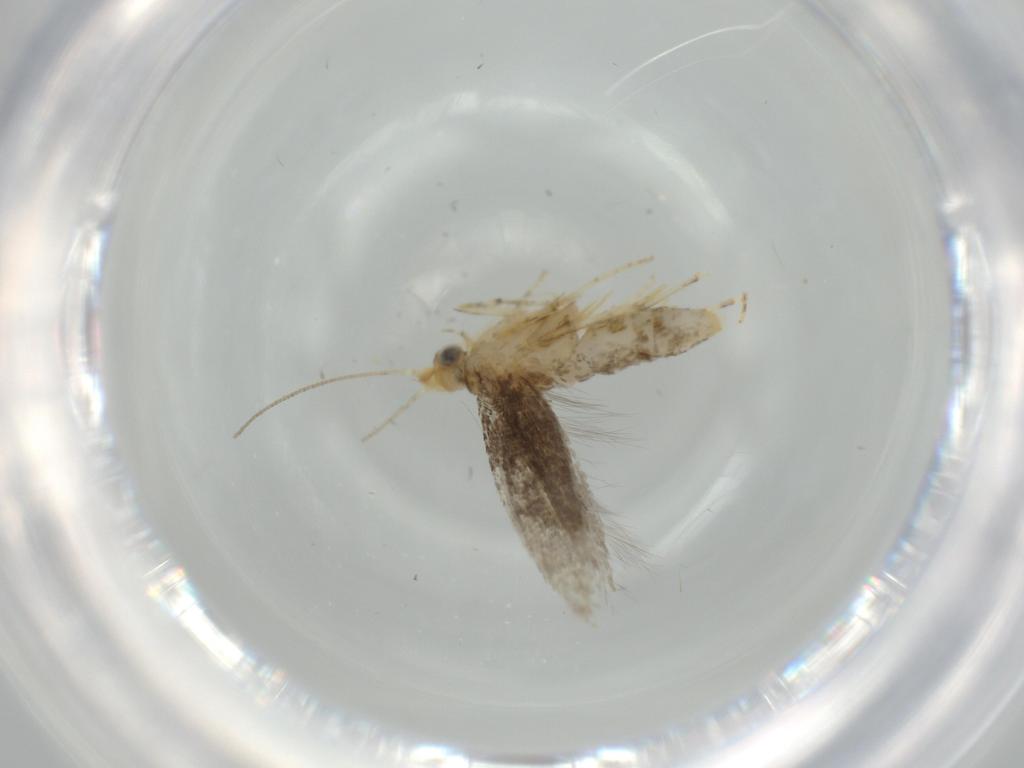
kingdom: Animalia
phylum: Arthropoda
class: Insecta
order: Lepidoptera
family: Argyresthiidae
